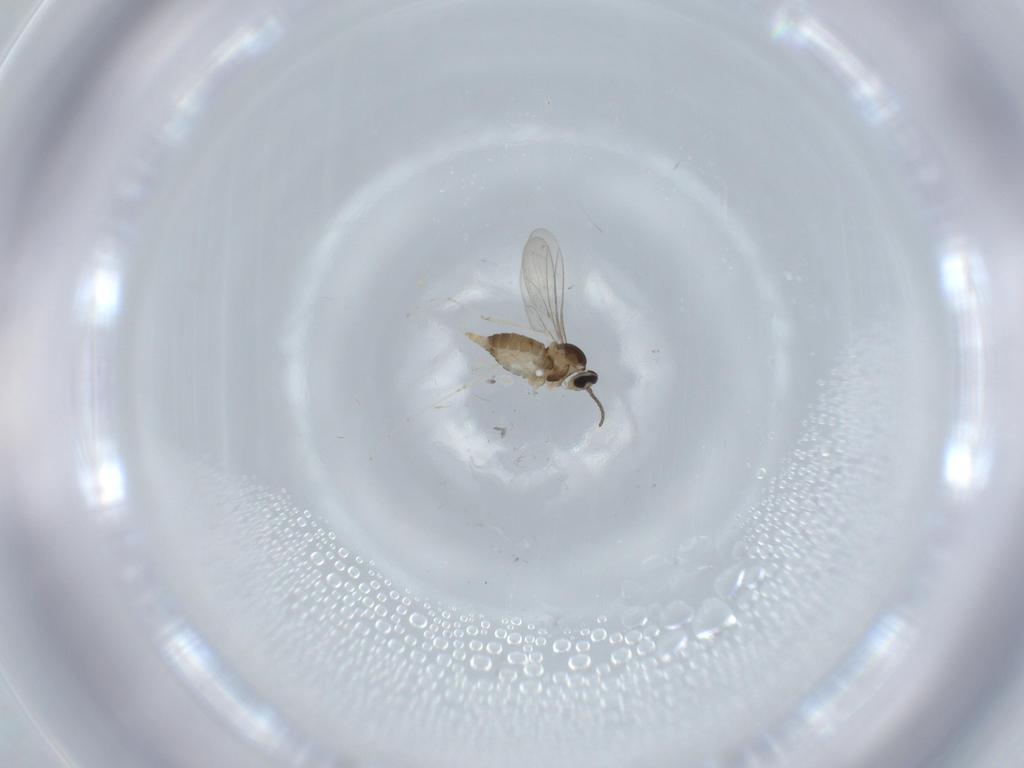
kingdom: Animalia
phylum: Arthropoda
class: Insecta
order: Diptera
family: Cecidomyiidae
